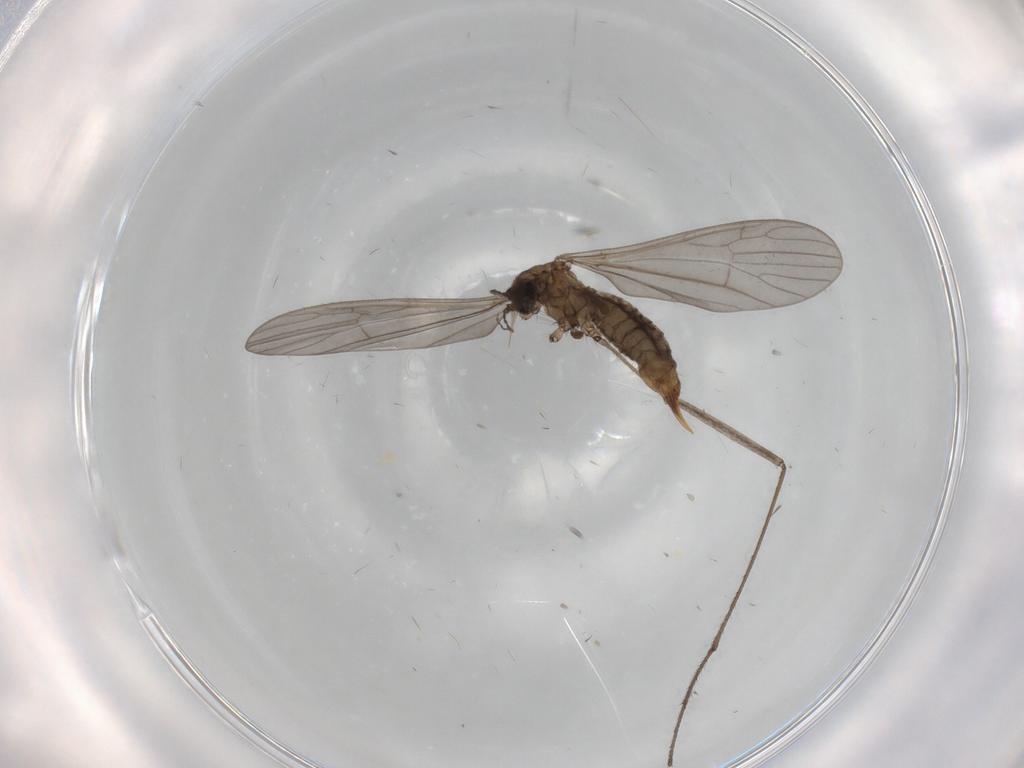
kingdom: Animalia
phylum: Arthropoda
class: Insecta
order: Diptera
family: Limoniidae
